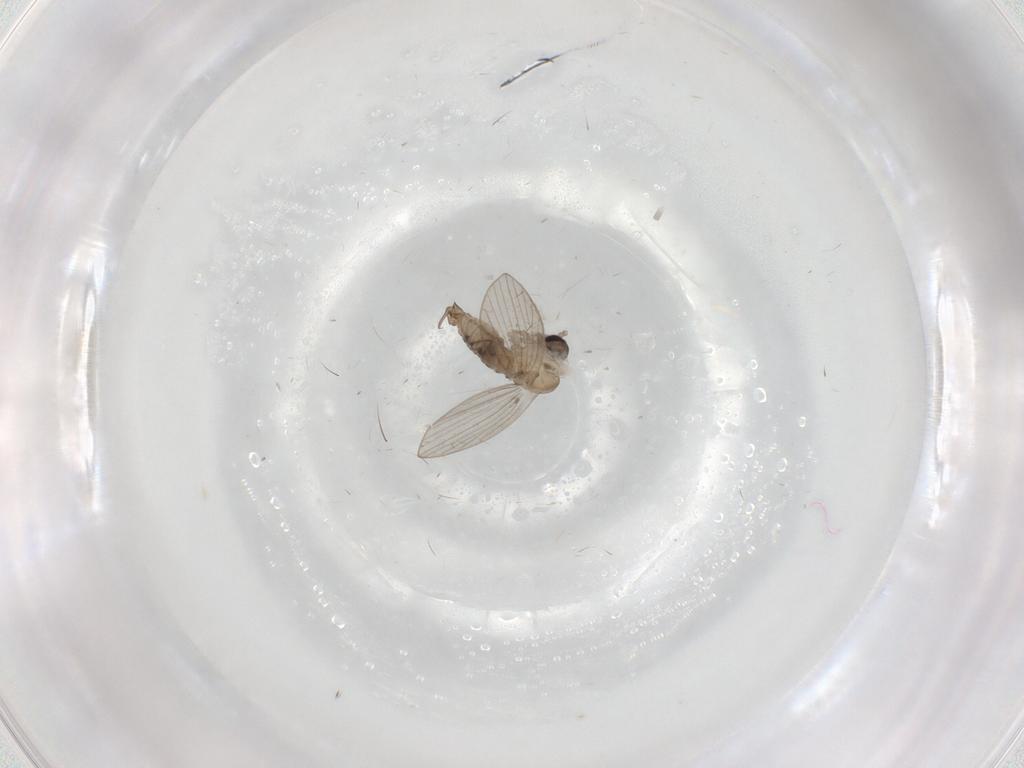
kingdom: Animalia
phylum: Arthropoda
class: Insecta
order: Diptera
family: Psychodidae
